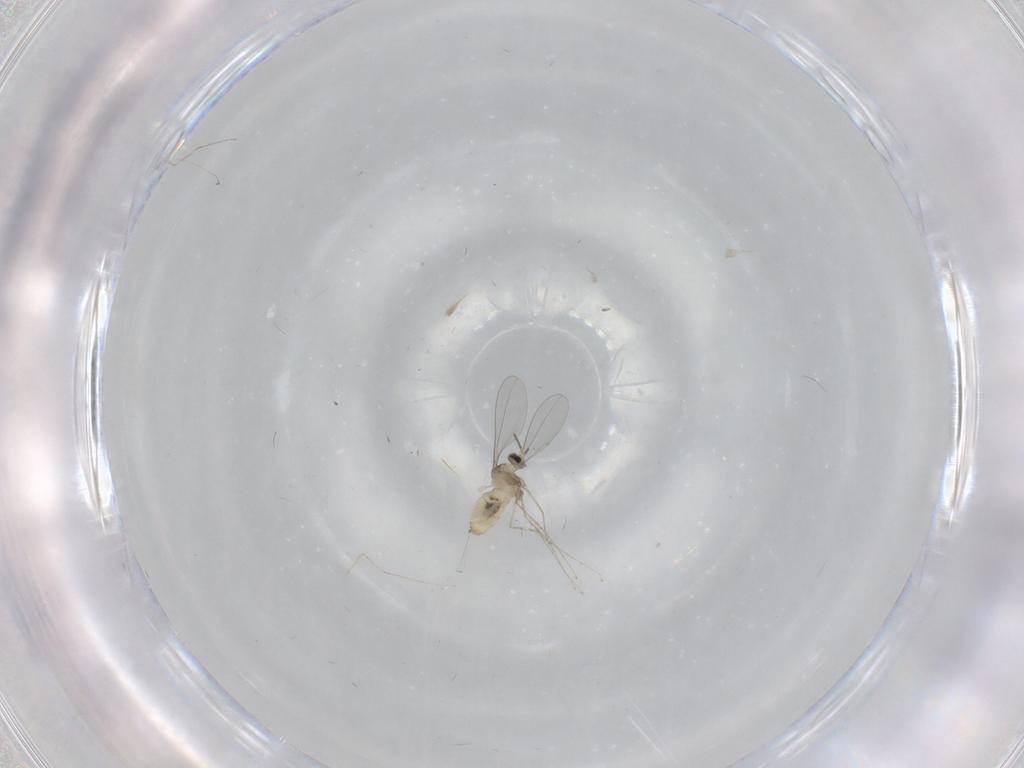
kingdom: Animalia
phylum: Arthropoda
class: Insecta
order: Diptera
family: Cecidomyiidae
